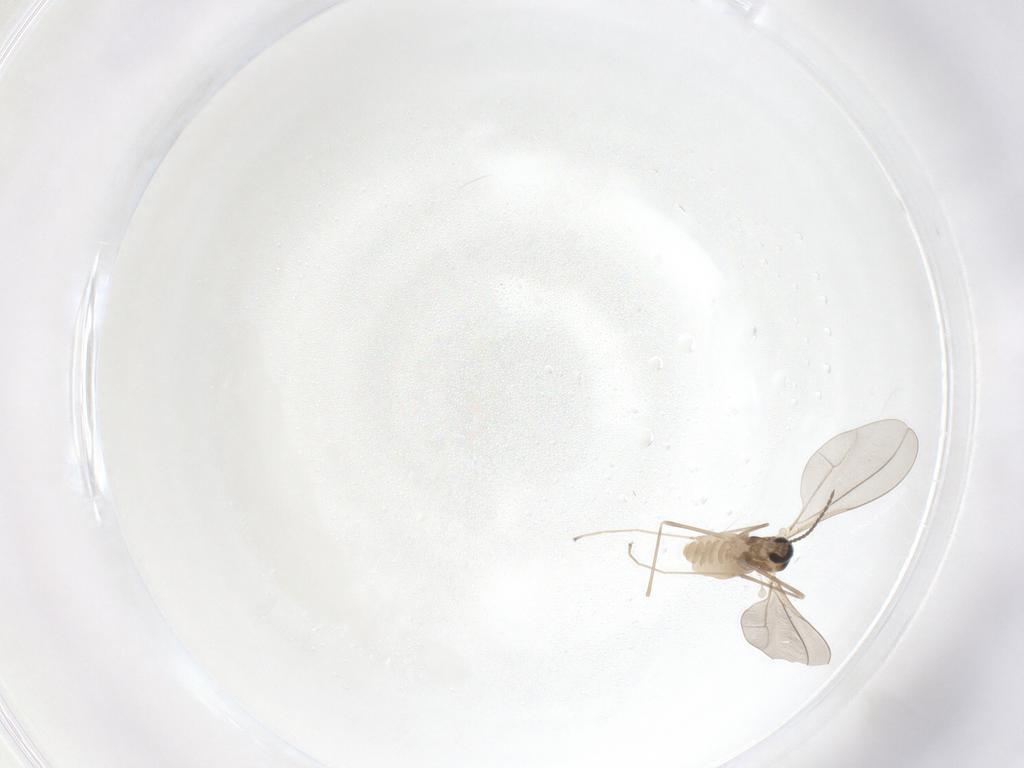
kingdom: Animalia
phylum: Arthropoda
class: Insecta
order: Diptera
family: Cecidomyiidae
